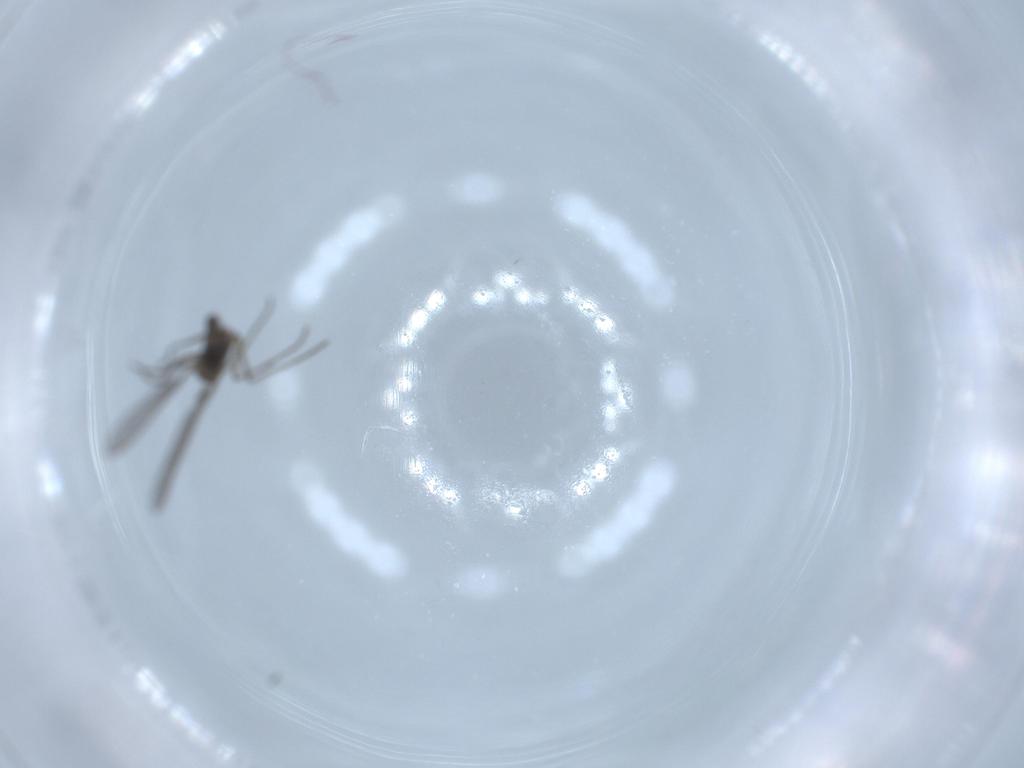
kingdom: Animalia
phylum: Arthropoda
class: Insecta
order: Diptera
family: Sciaridae
